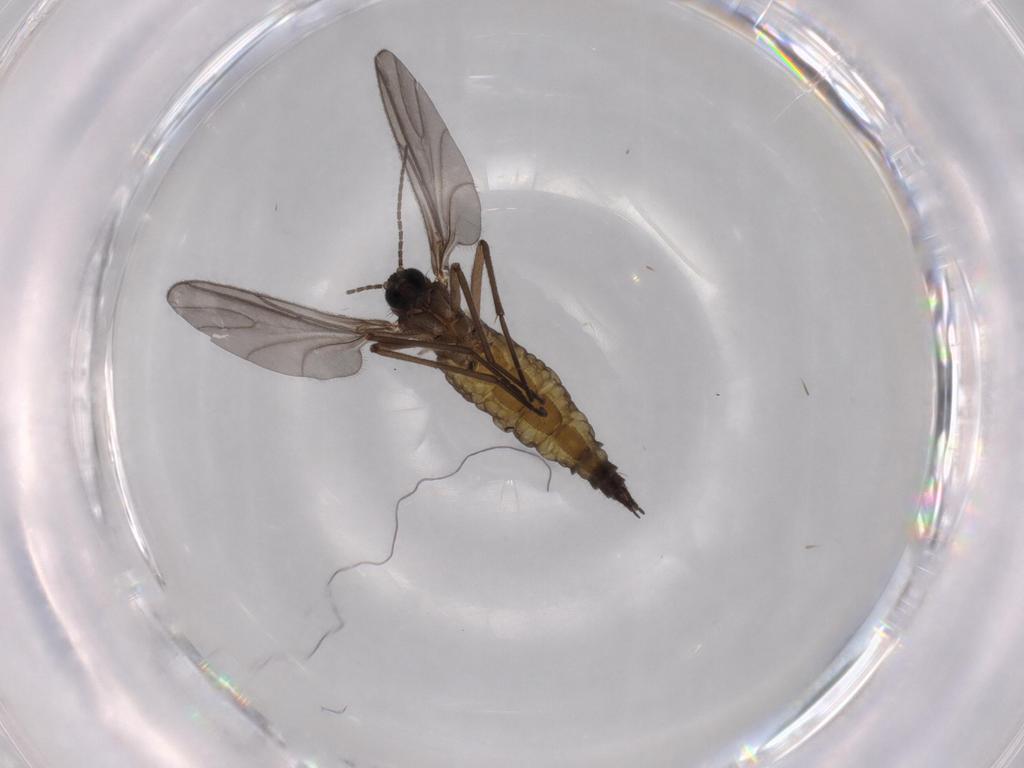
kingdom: Animalia
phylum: Arthropoda
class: Insecta
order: Diptera
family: Sciaridae
